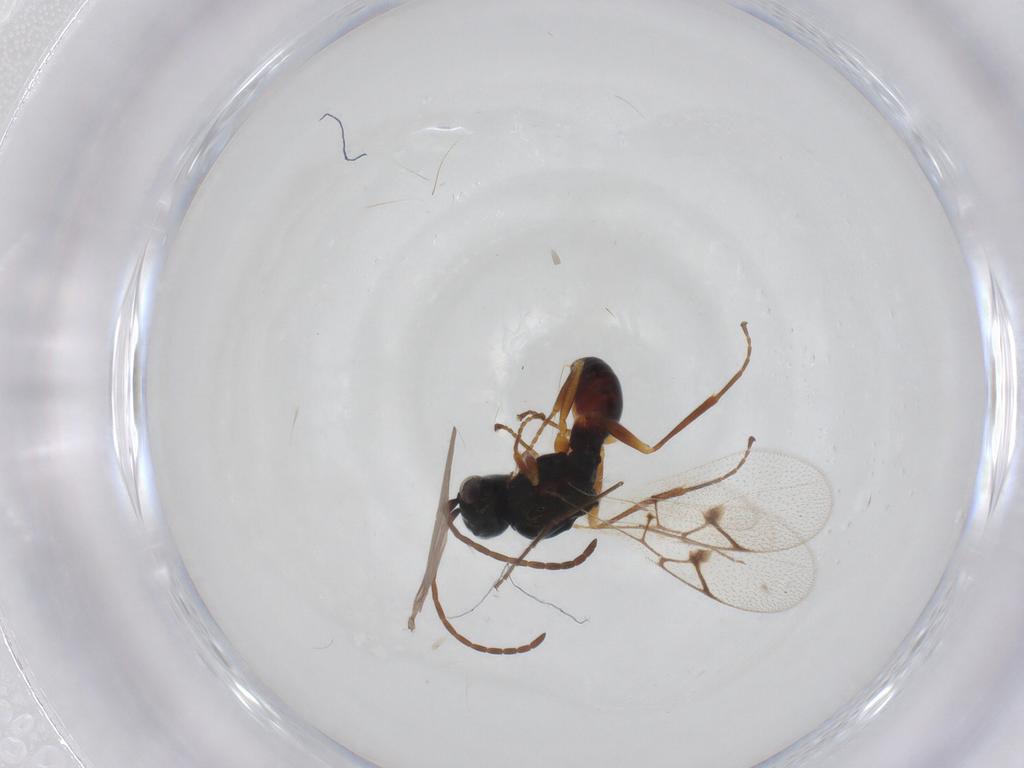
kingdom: Animalia
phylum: Arthropoda
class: Insecta
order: Hymenoptera
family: Figitidae
